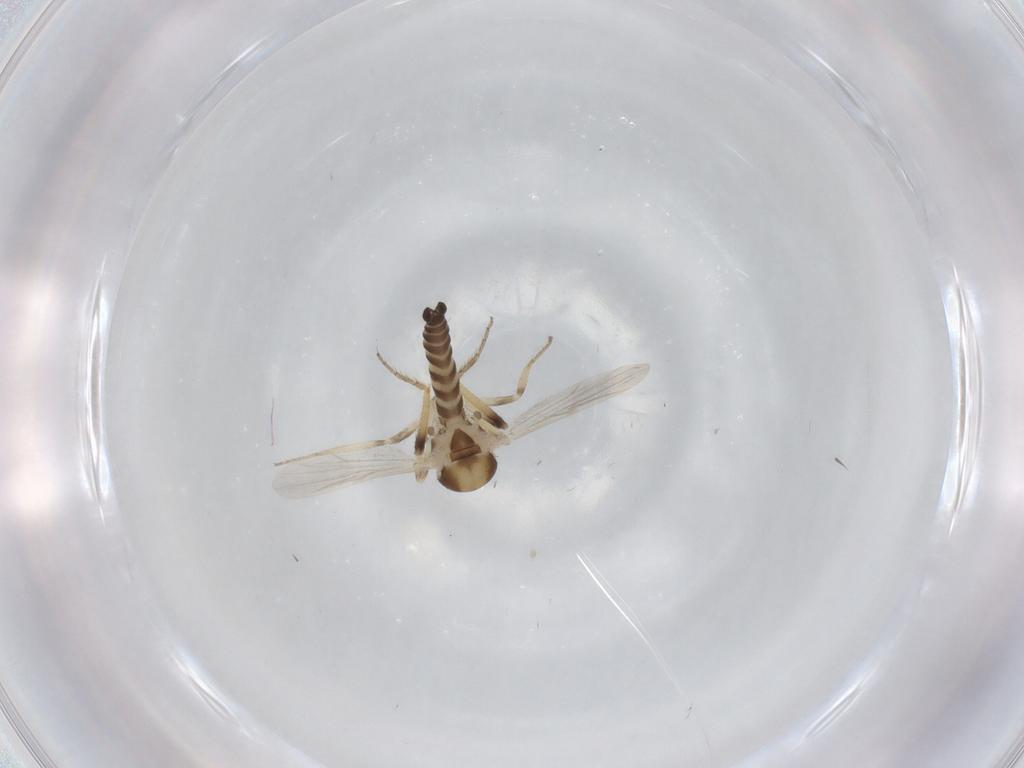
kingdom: Animalia
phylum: Arthropoda
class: Insecta
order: Diptera
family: Ceratopogonidae
